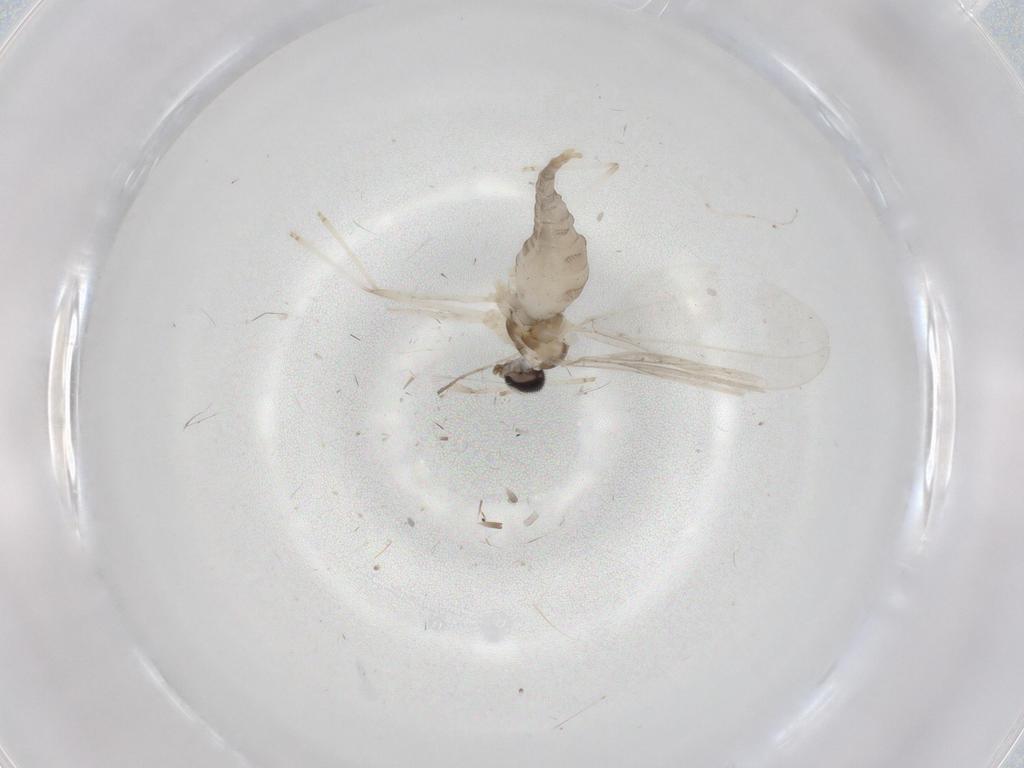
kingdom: Animalia
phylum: Arthropoda
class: Insecta
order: Diptera
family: Cecidomyiidae
